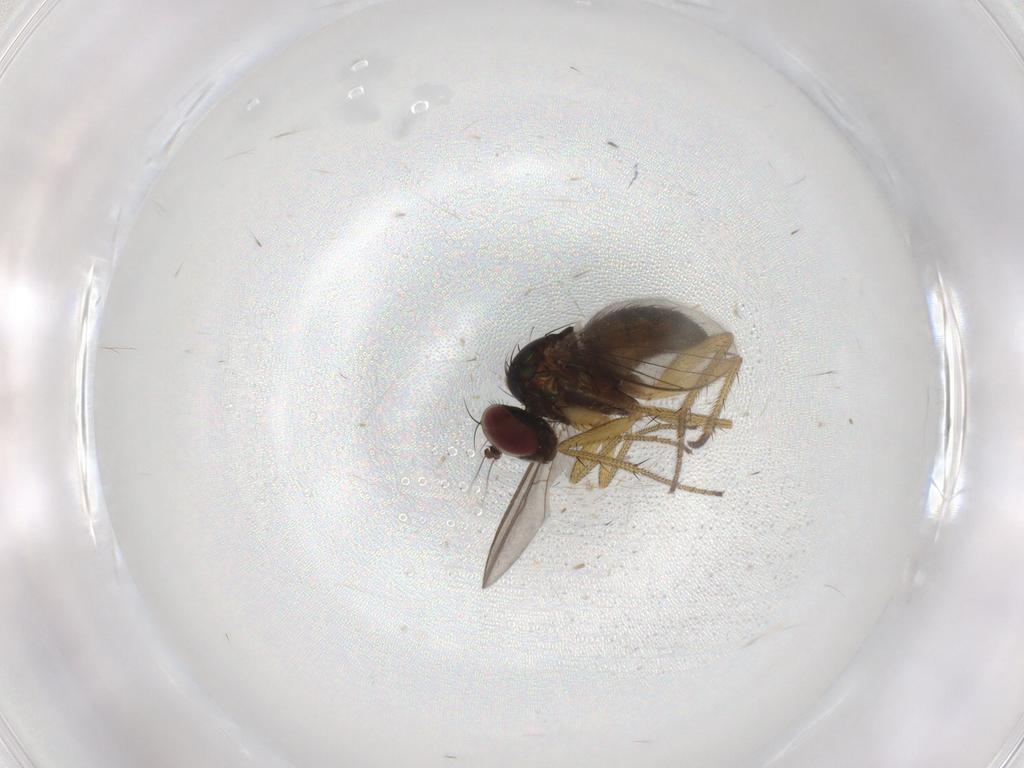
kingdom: Animalia
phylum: Arthropoda
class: Insecta
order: Diptera
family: Dolichopodidae
